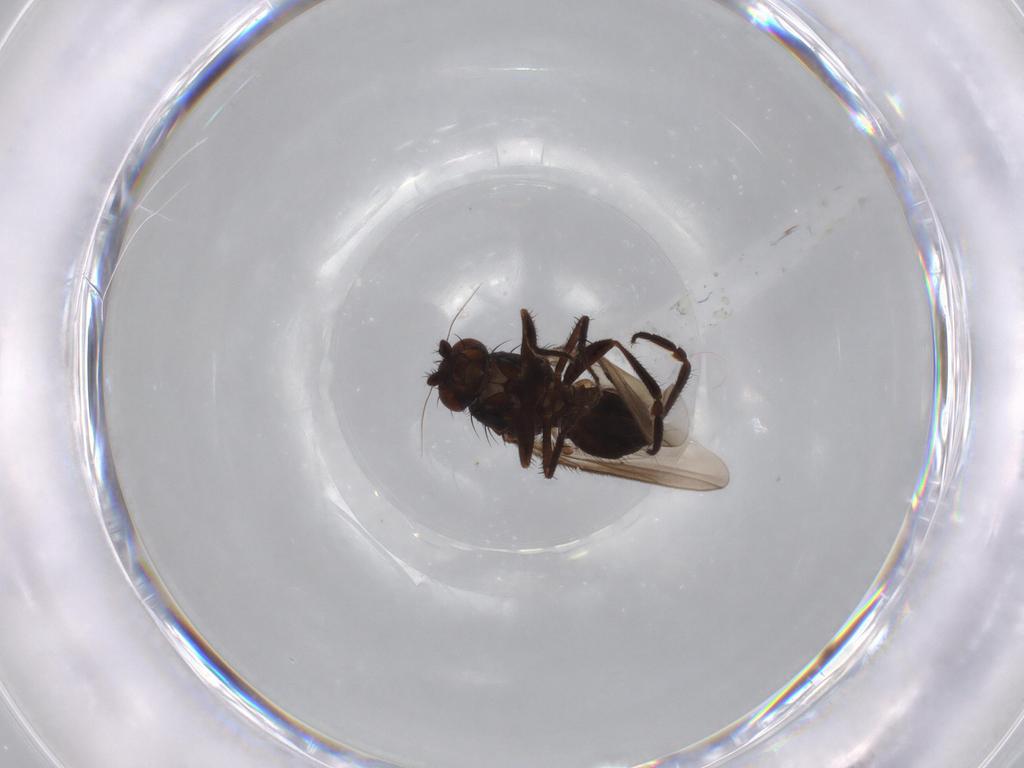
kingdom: Animalia
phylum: Arthropoda
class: Insecta
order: Diptera
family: Sphaeroceridae
